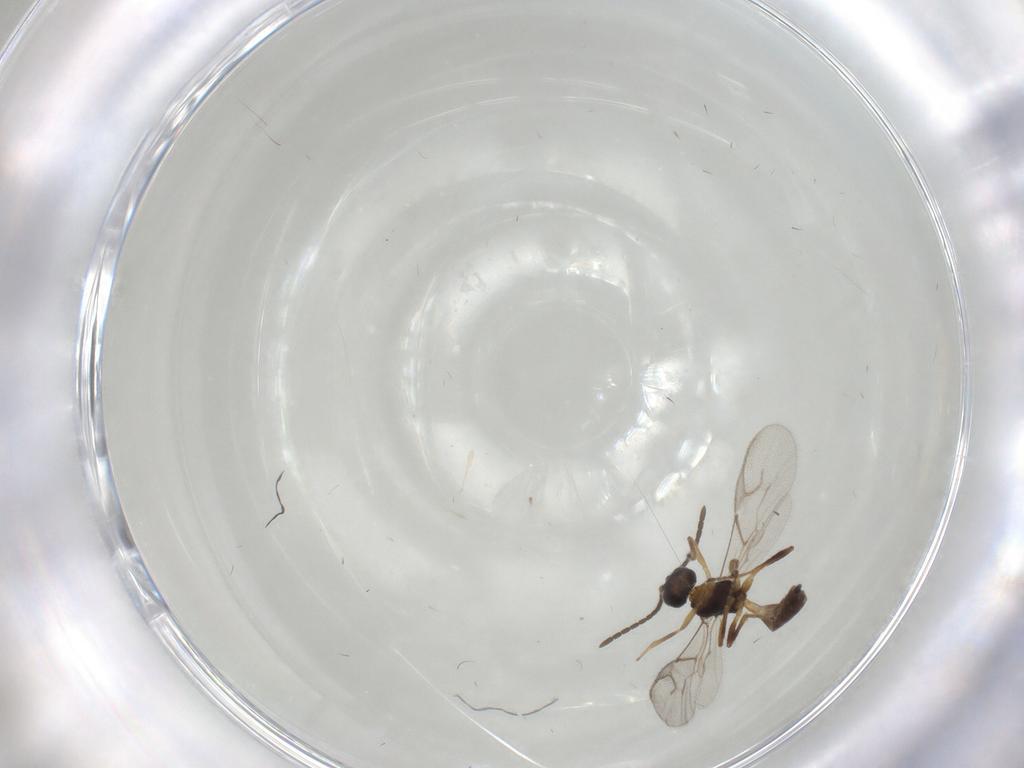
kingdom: Animalia
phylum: Arthropoda
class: Insecta
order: Hymenoptera
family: Braconidae
